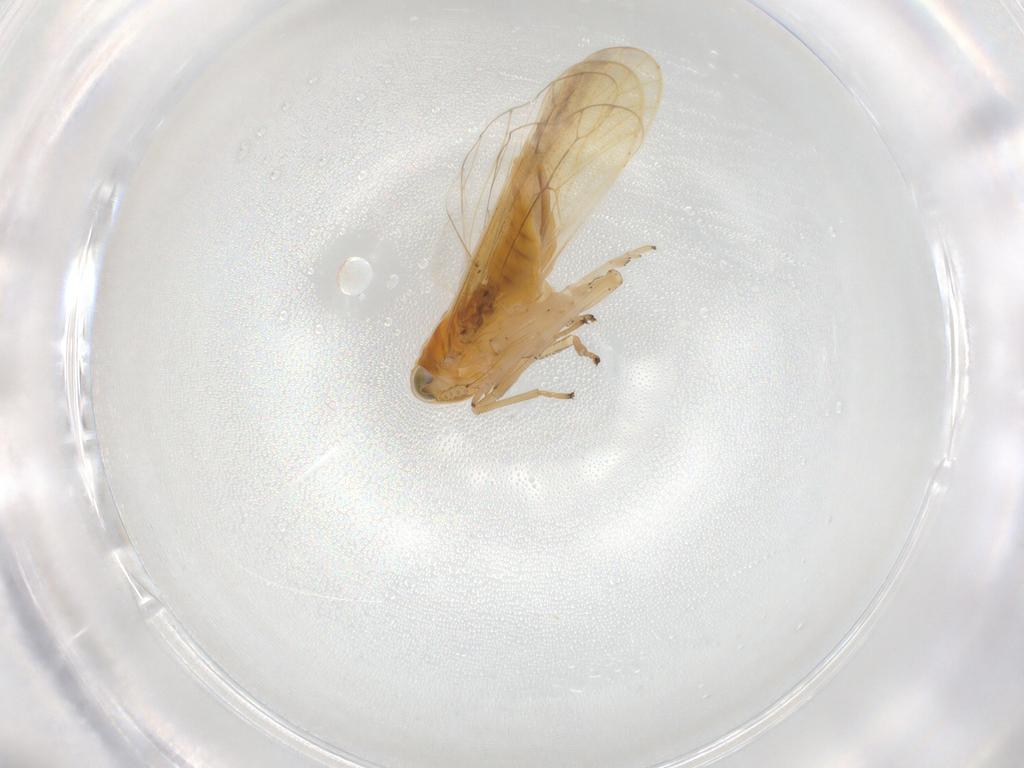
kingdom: Animalia
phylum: Arthropoda
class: Insecta
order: Hemiptera
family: Delphacidae
